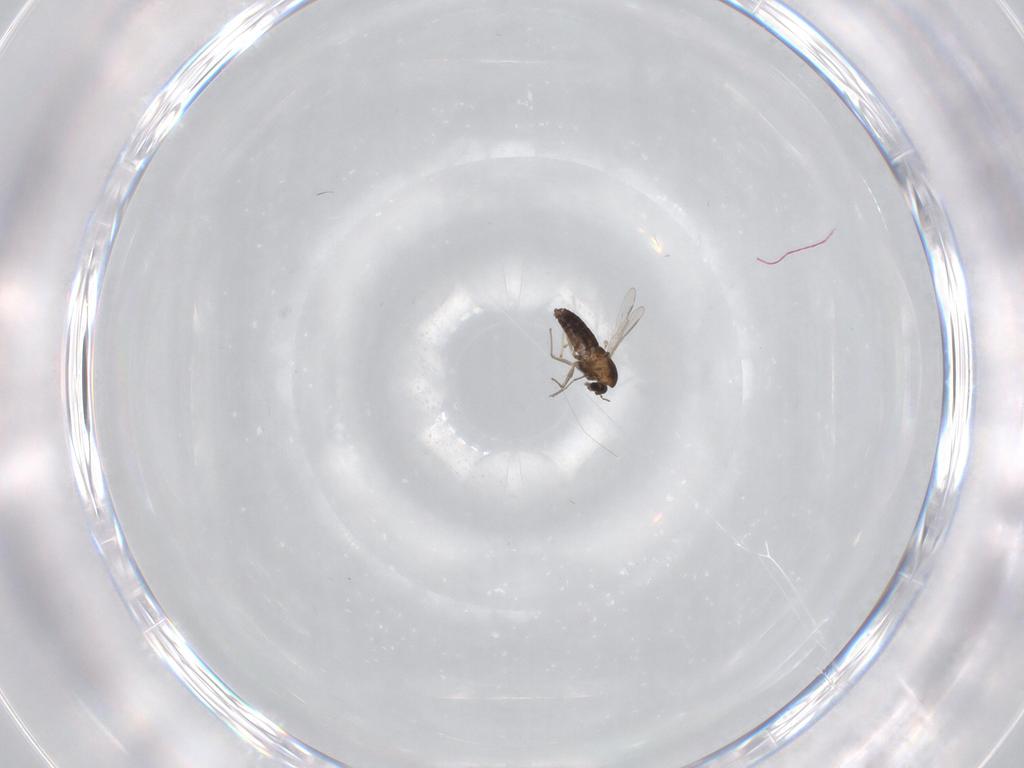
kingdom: Animalia
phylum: Arthropoda
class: Insecta
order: Diptera
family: Chironomidae
